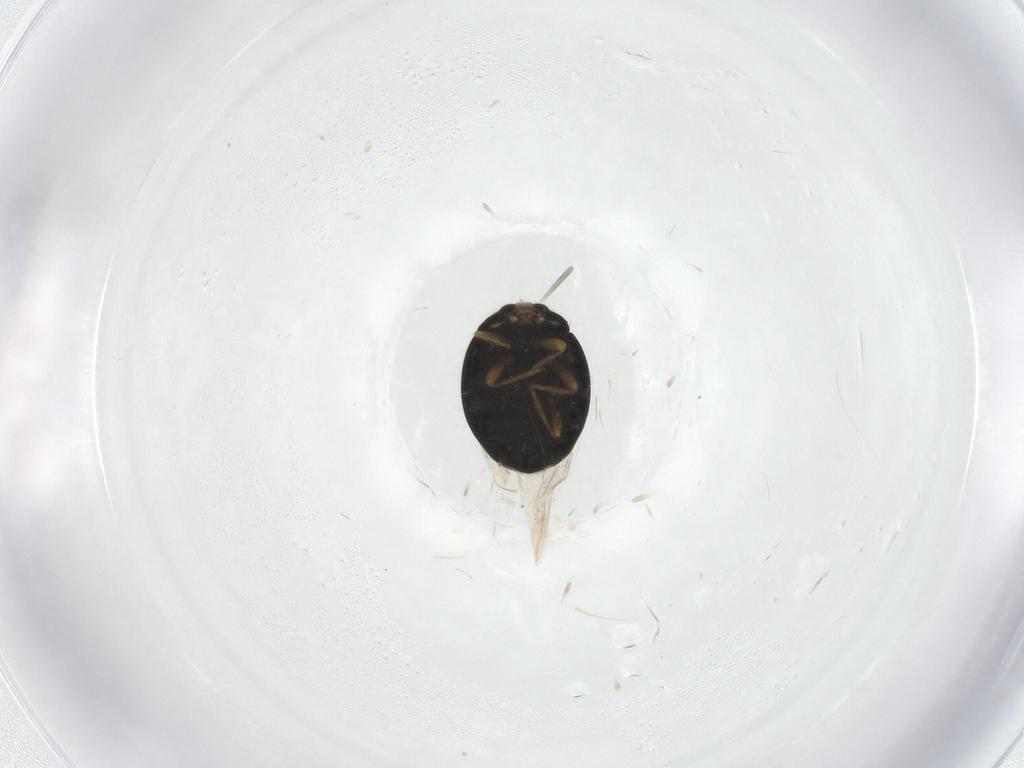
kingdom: Animalia
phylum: Arthropoda
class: Insecta
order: Coleoptera
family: Coccinellidae
